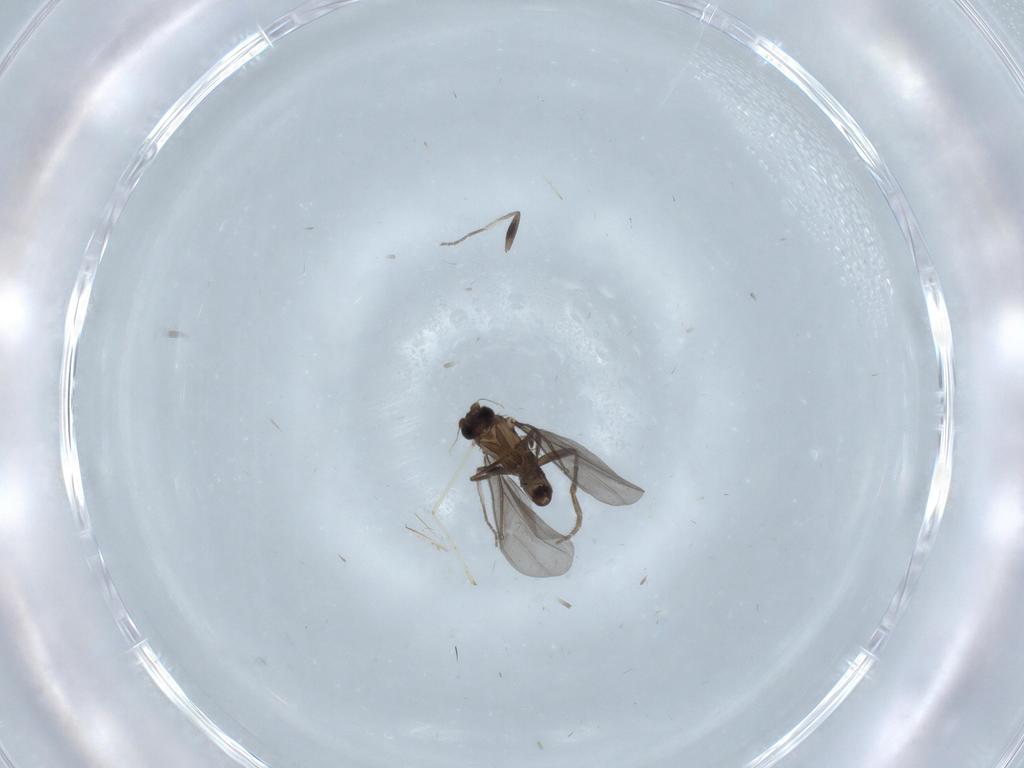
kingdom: Animalia
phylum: Arthropoda
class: Insecta
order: Diptera
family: Phoridae
